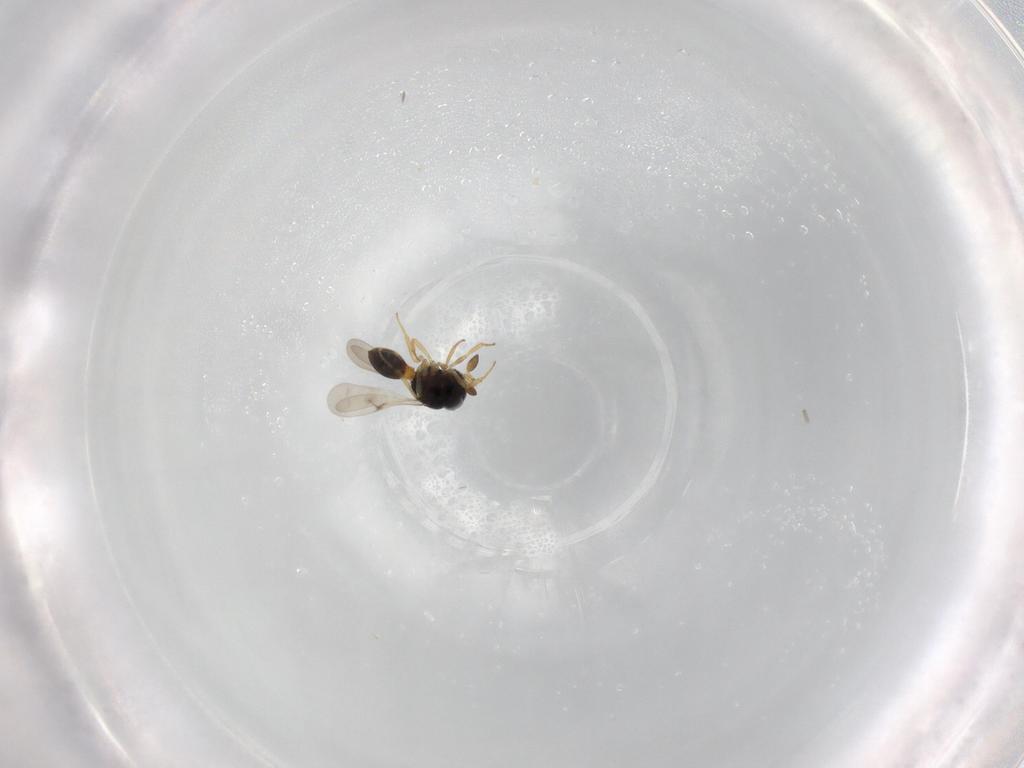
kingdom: Animalia
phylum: Arthropoda
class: Insecta
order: Hymenoptera
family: Scelionidae
